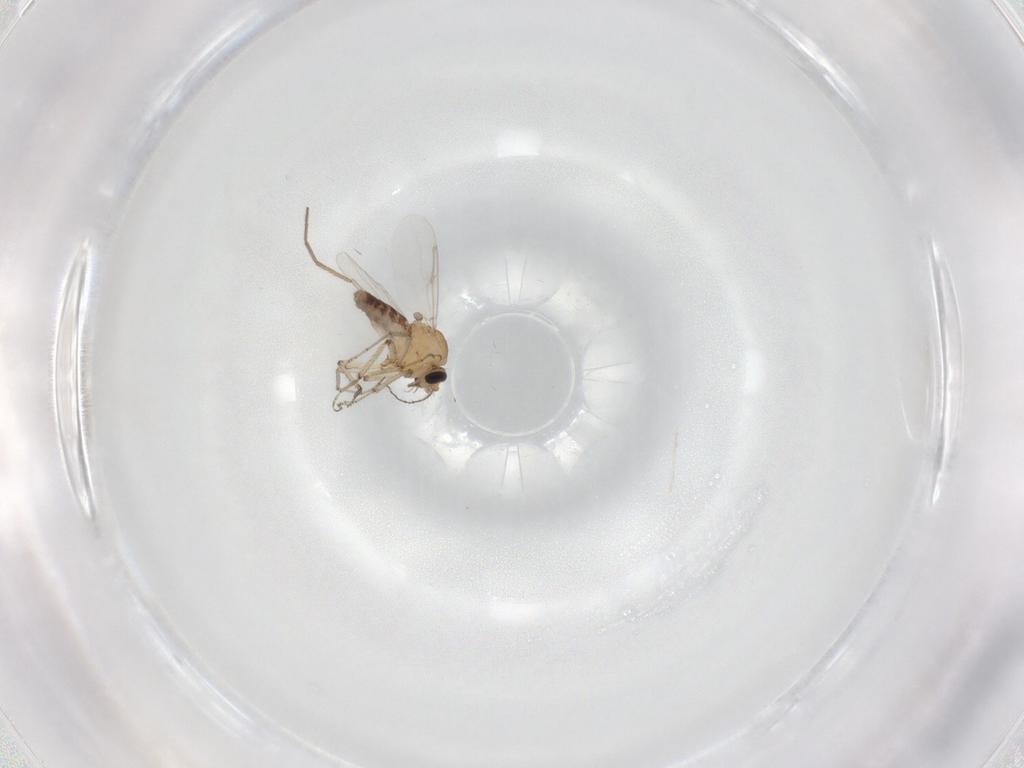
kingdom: Animalia
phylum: Arthropoda
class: Insecta
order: Diptera
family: Ceratopogonidae
